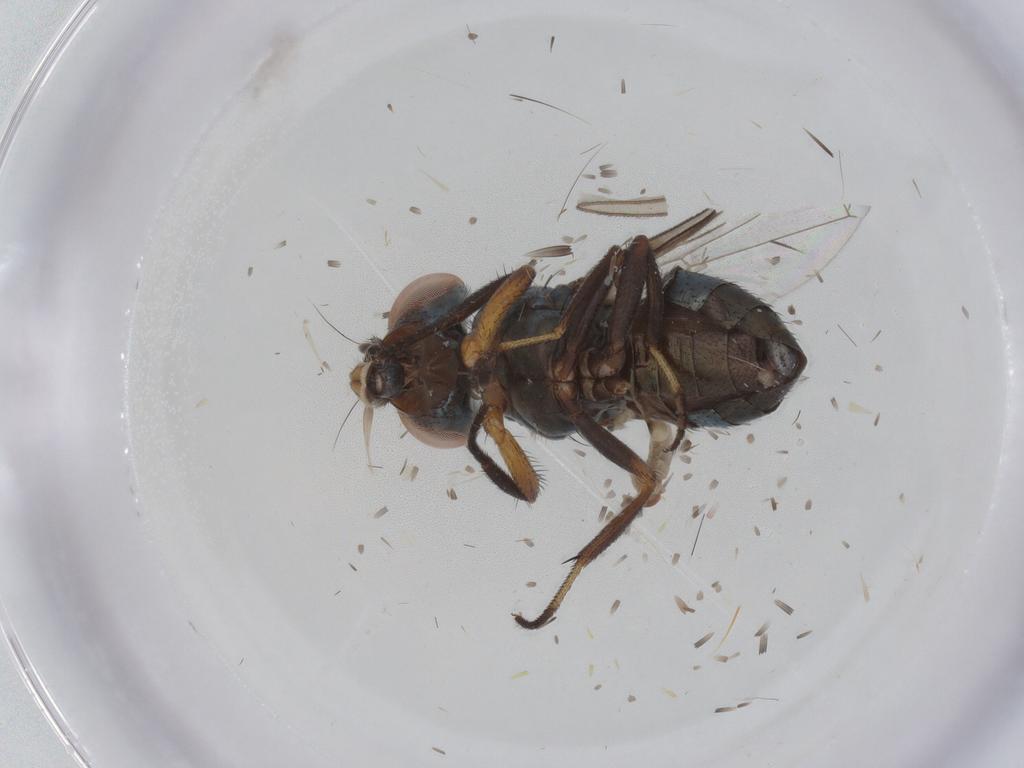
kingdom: Animalia
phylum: Arthropoda
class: Insecta
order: Diptera
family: Cecidomyiidae
